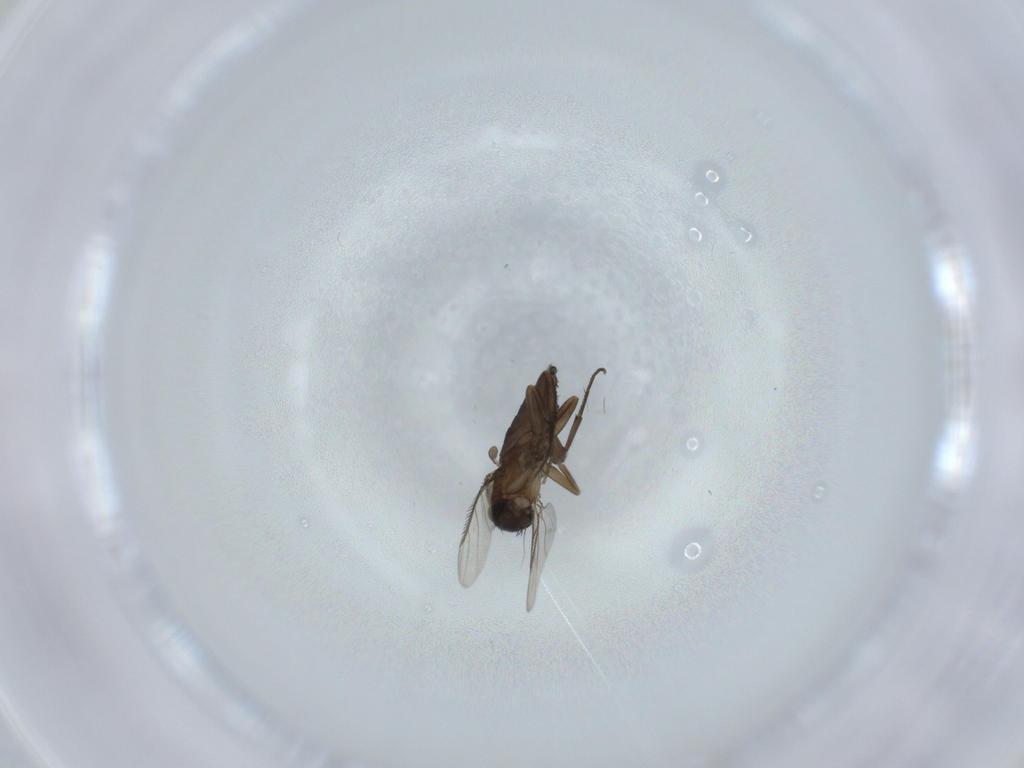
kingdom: Animalia
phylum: Arthropoda
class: Insecta
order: Diptera
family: Phoridae
